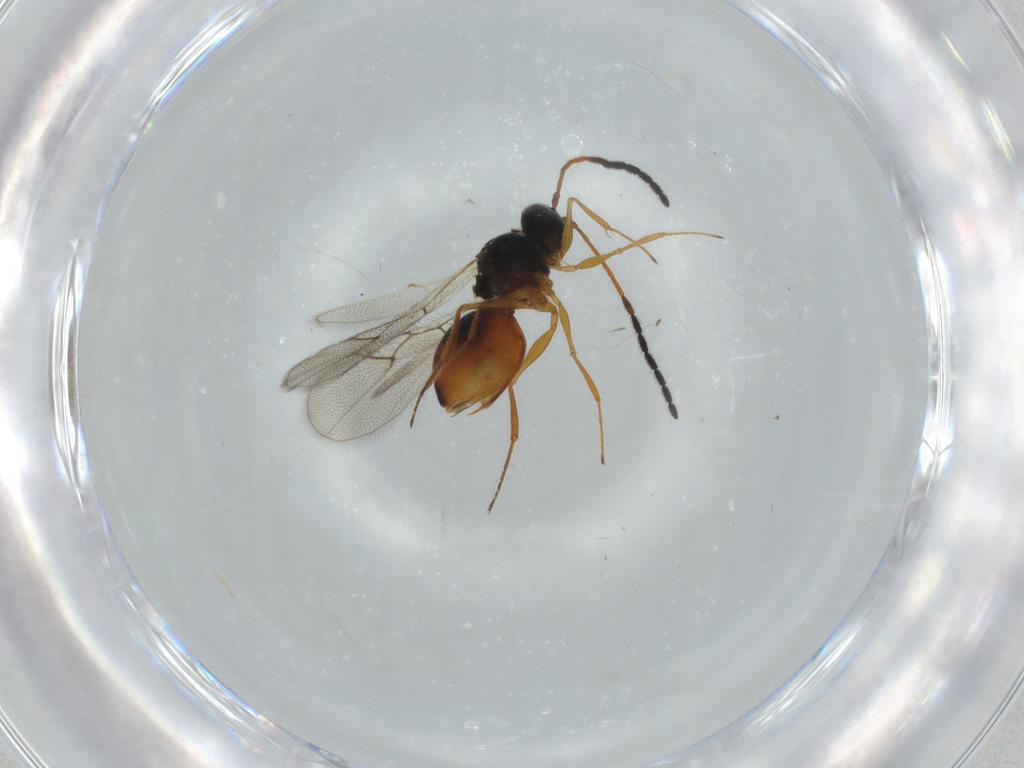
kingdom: Animalia
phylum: Arthropoda
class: Insecta
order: Hymenoptera
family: Figitidae
